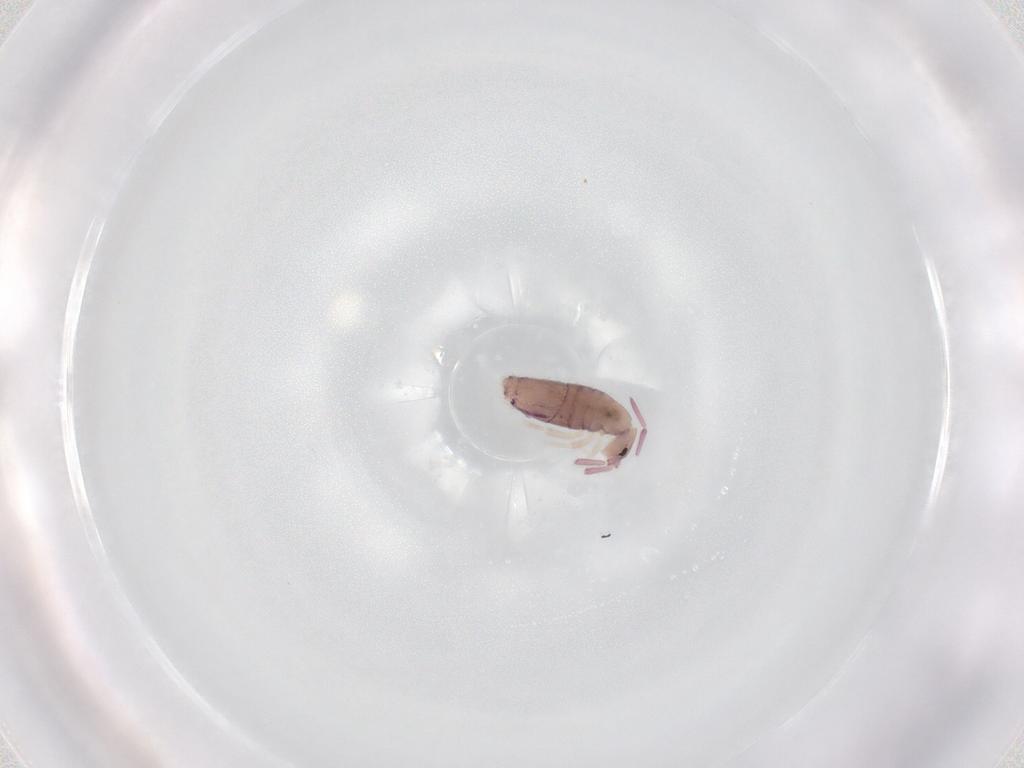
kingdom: Animalia
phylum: Arthropoda
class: Collembola
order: Entomobryomorpha
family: Entomobryidae
